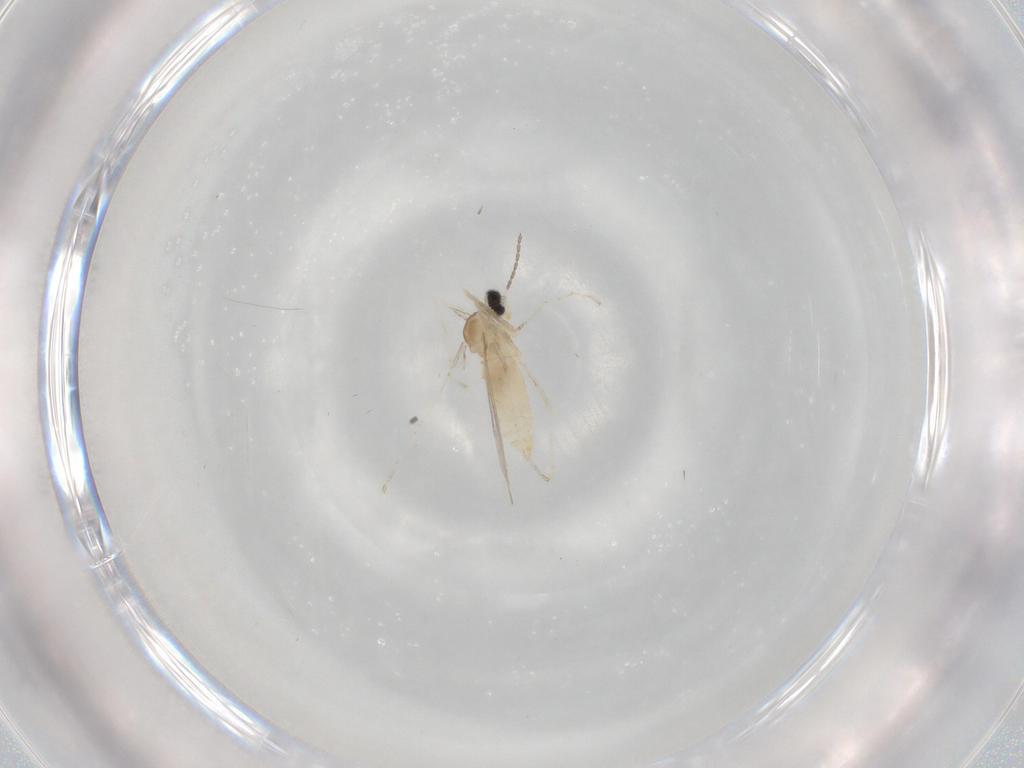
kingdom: Animalia
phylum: Arthropoda
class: Insecta
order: Diptera
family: Cecidomyiidae
